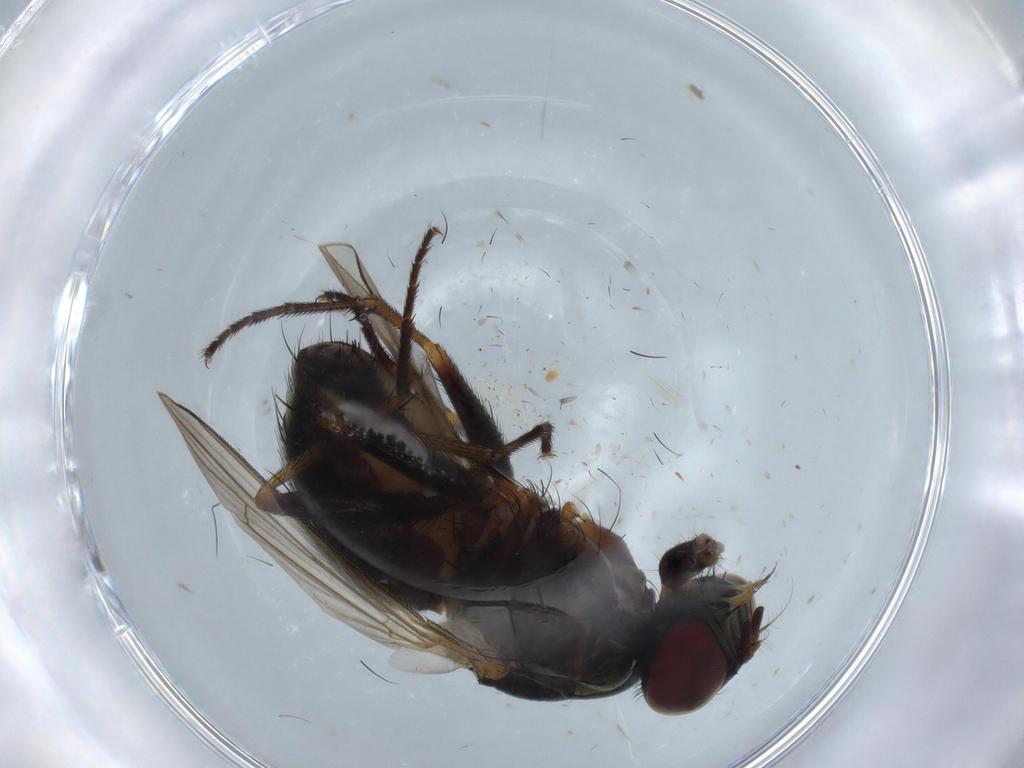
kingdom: Animalia
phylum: Arthropoda
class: Insecta
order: Diptera
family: Muscidae
